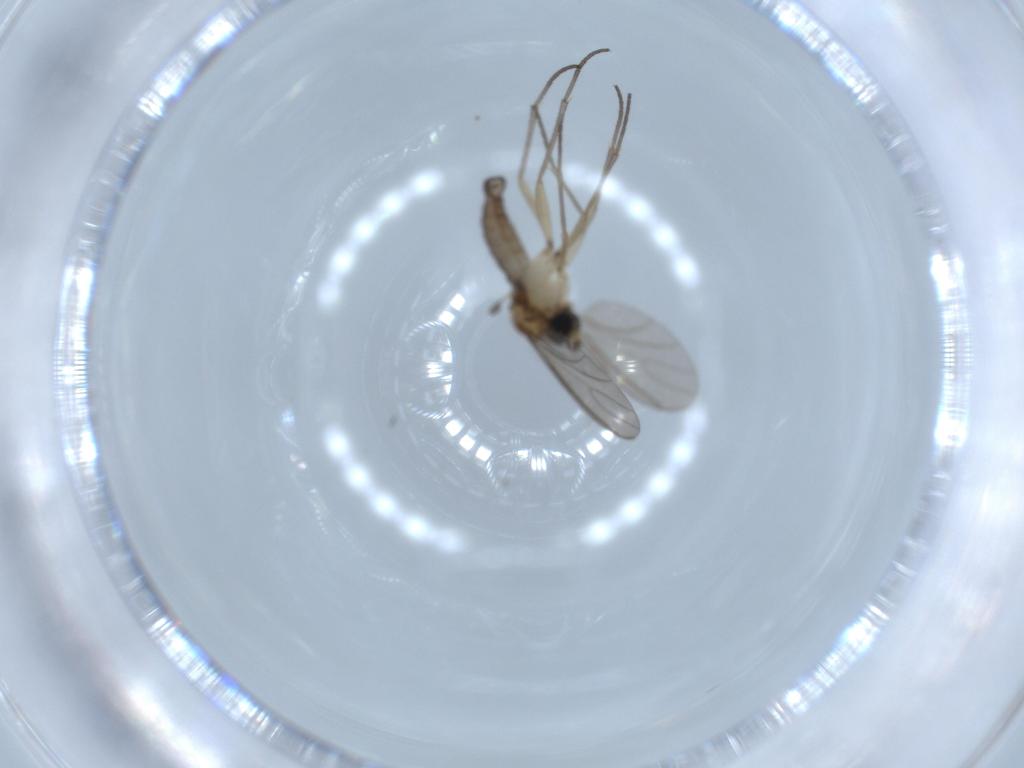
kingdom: Animalia
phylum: Arthropoda
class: Insecta
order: Diptera
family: Sciaridae
